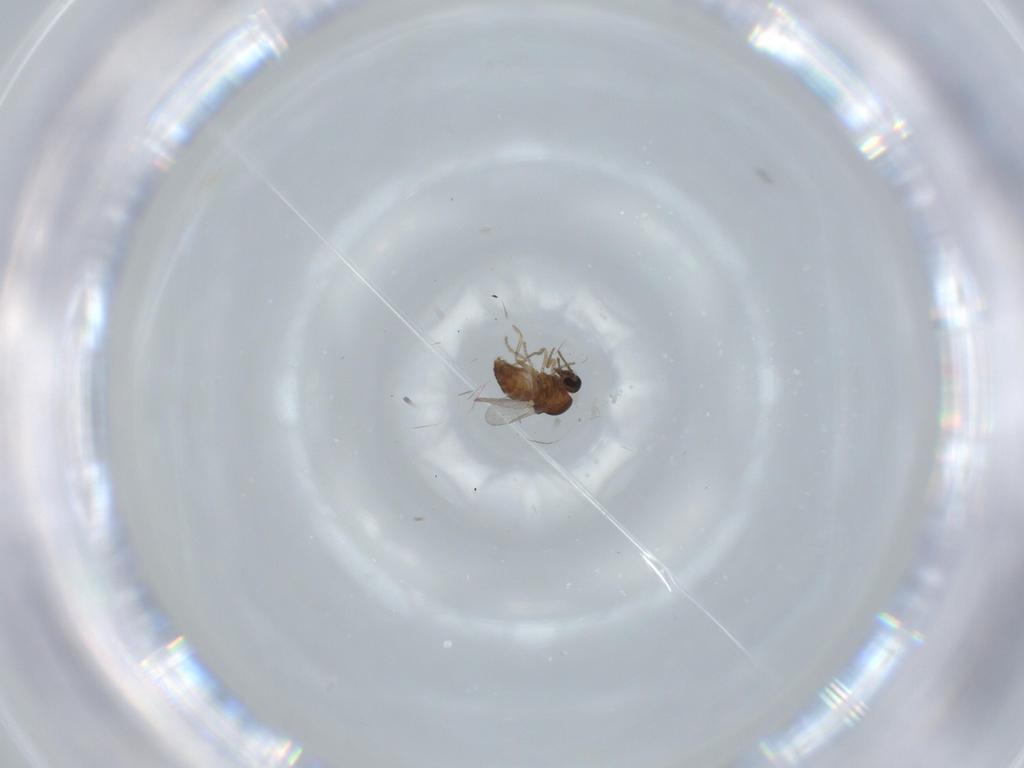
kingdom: Animalia
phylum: Arthropoda
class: Insecta
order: Diptera
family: Ceratopogonidae
